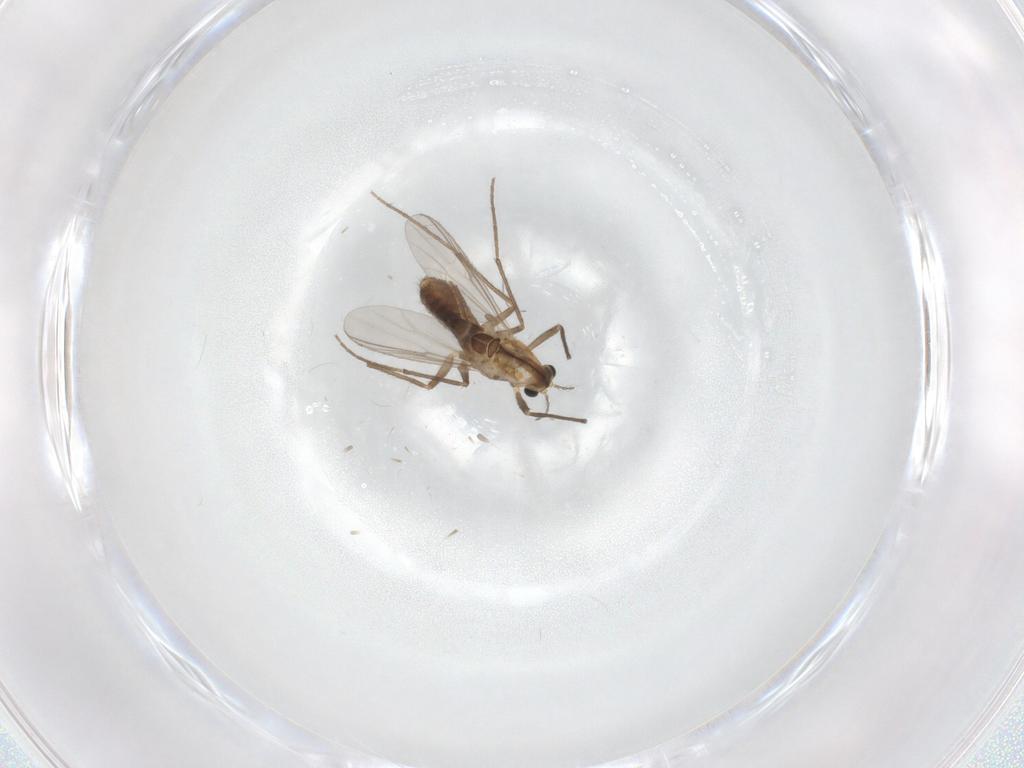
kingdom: Animalia
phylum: Arthropoda
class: Insecta
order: Diptera
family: Chironomidae
